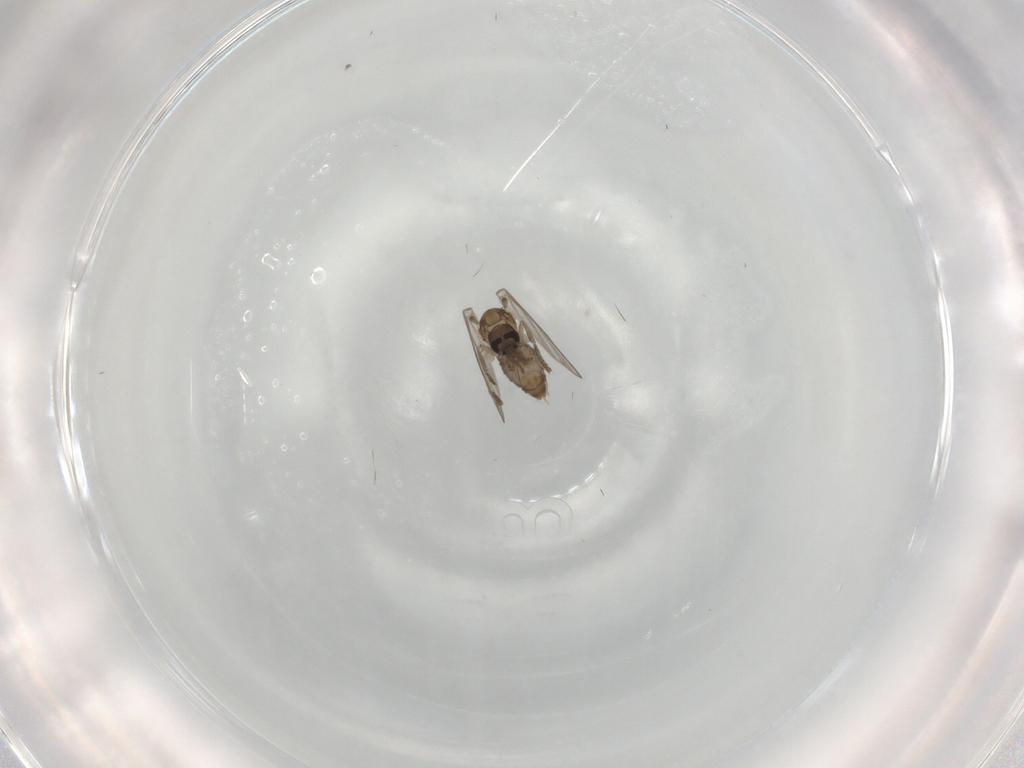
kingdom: Animalia
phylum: Arthropoda
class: Insecta
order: Diptera
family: Psychodidae
